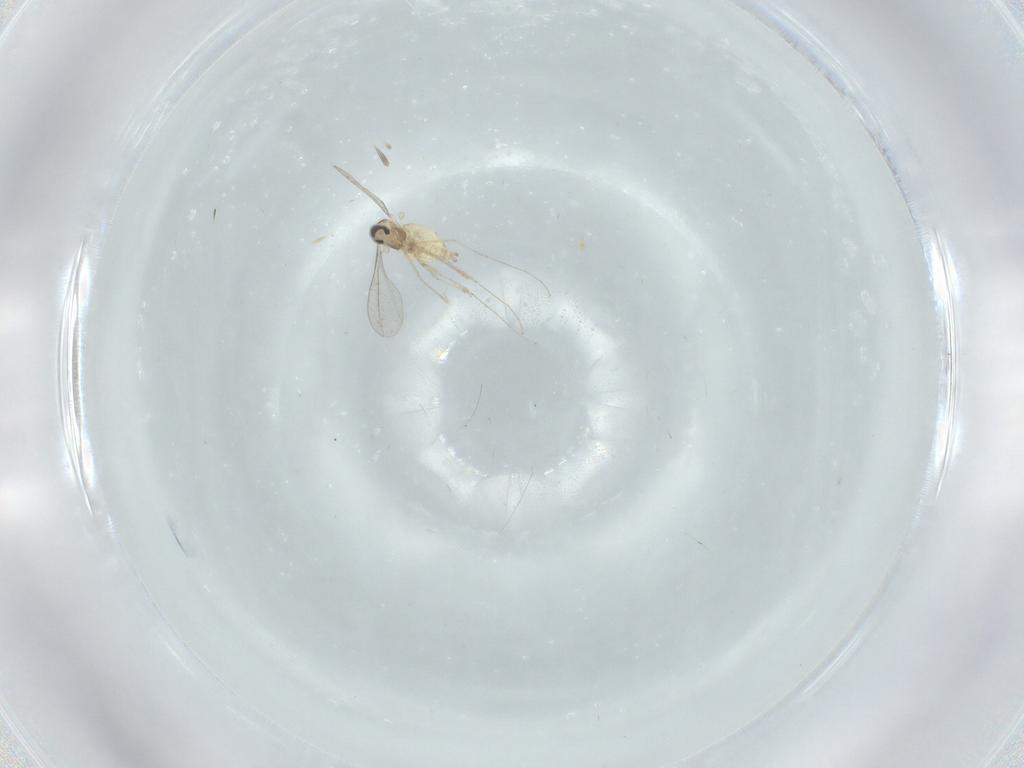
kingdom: Animalia
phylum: Arthropoda
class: Insecta
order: Diptera
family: Cecidomyiidae
